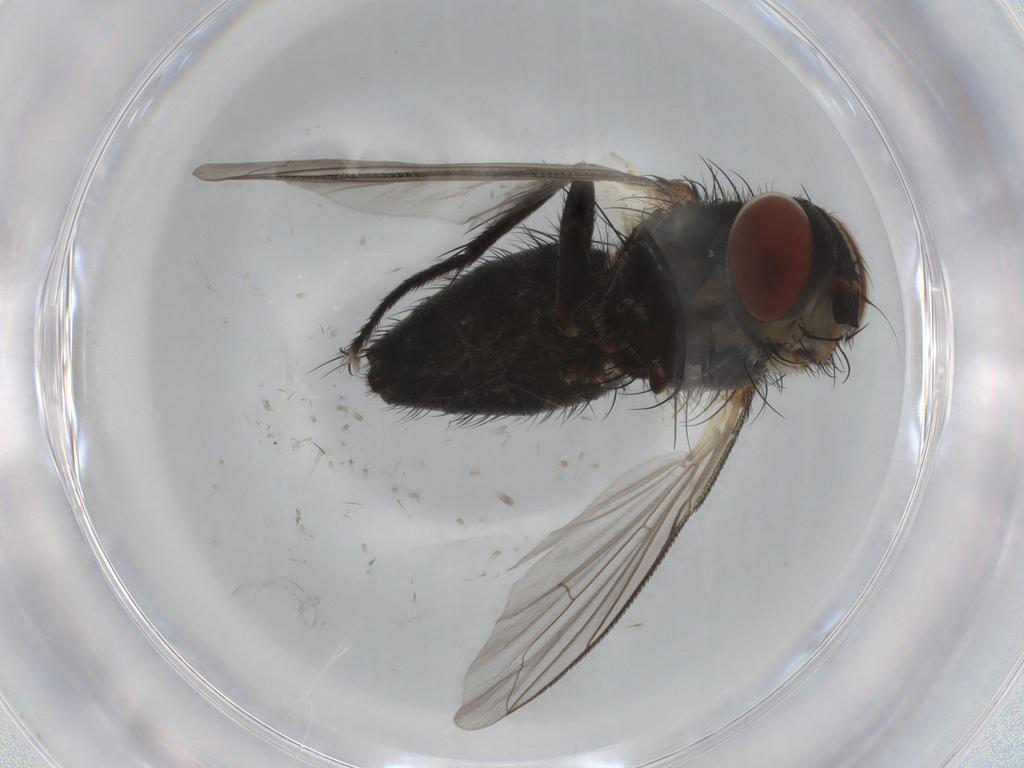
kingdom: Animalia
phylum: Arthropoda
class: Insecta
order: Diptera
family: Tachinidae
